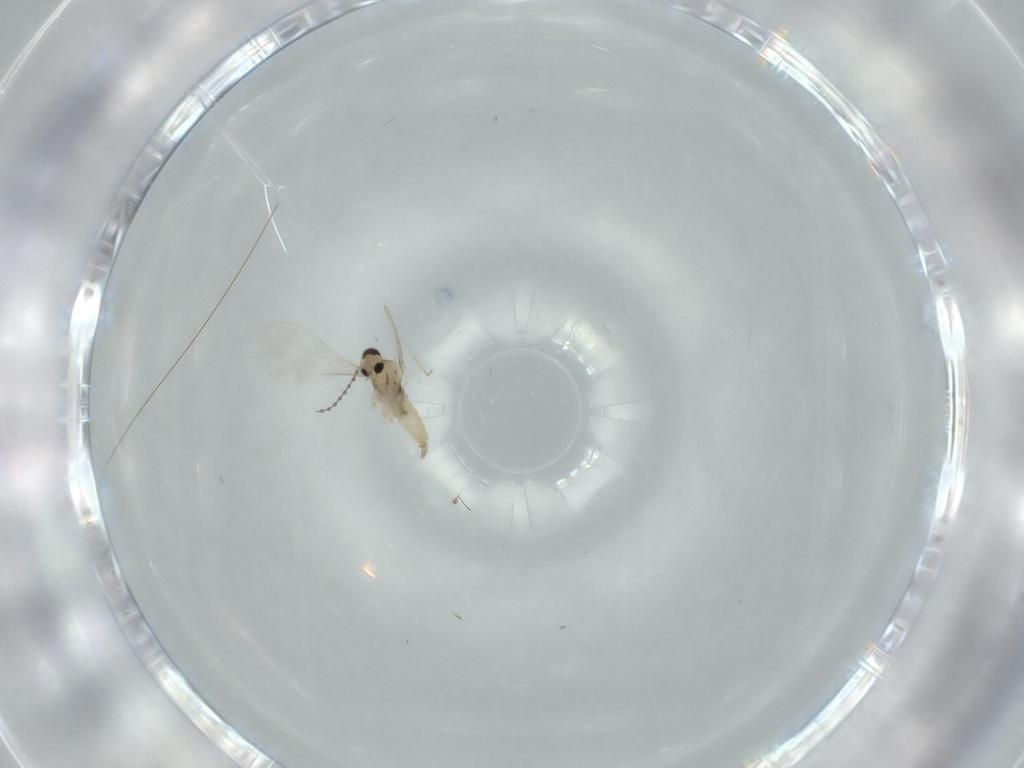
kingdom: Animalia
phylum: Arthropoda
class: Insecta
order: Diptera
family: Cecidomyiidae
